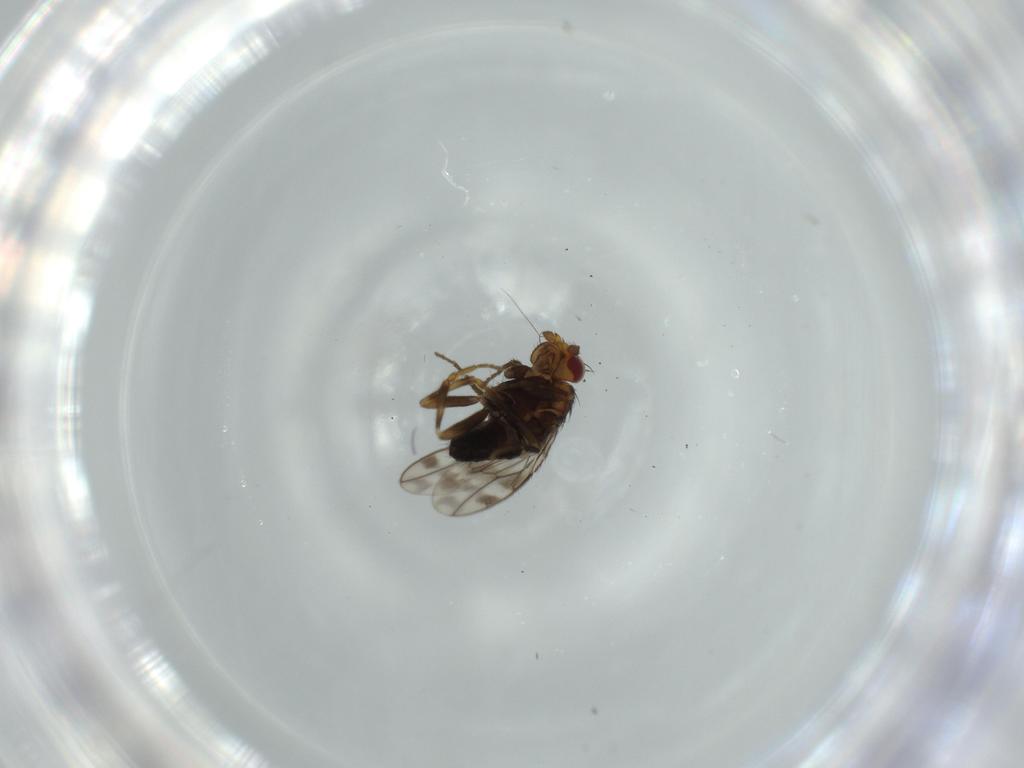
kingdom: Animalia
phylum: Arthropoda
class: Insecta
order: Diptera
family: Sphaeroceridae
